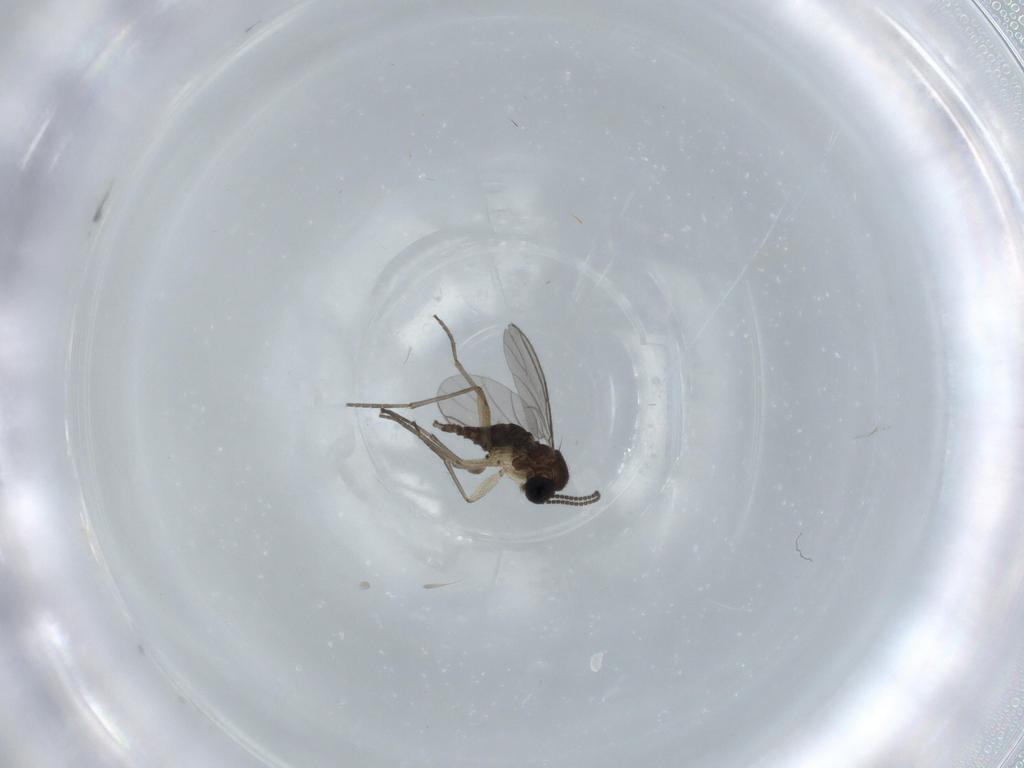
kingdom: Animalia
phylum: Arthropoda
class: Insecta
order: Diptera
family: Sciaridae
